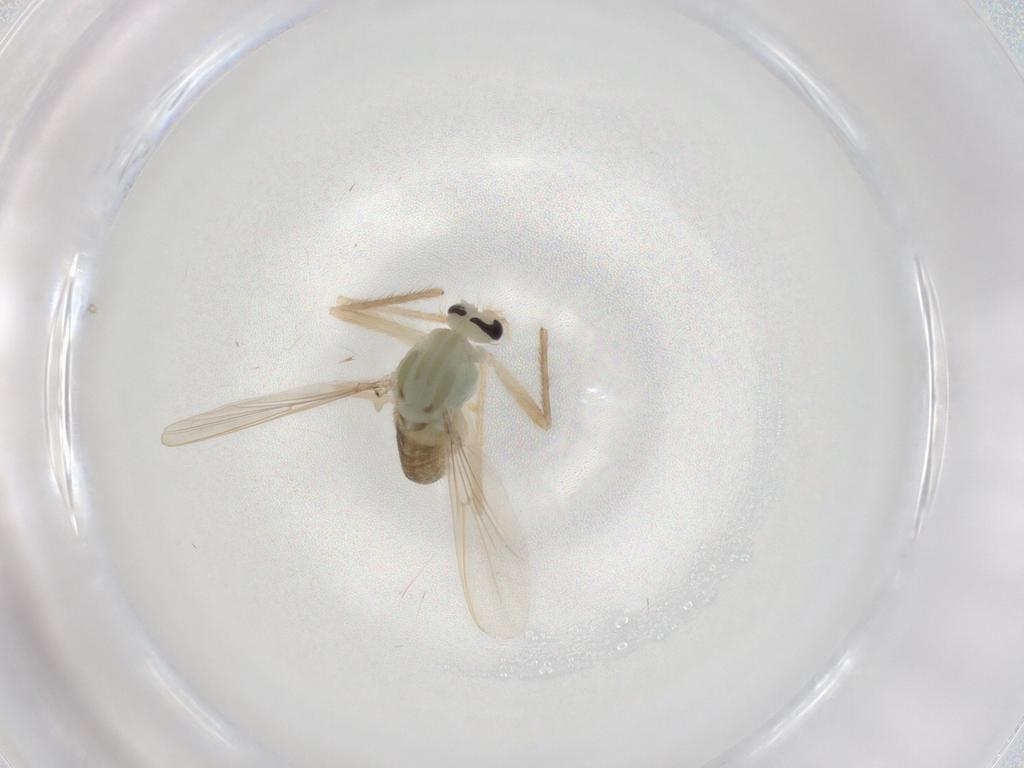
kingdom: Animalia
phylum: Arthropoda
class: Insecta
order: Diptera
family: Chironomidae
